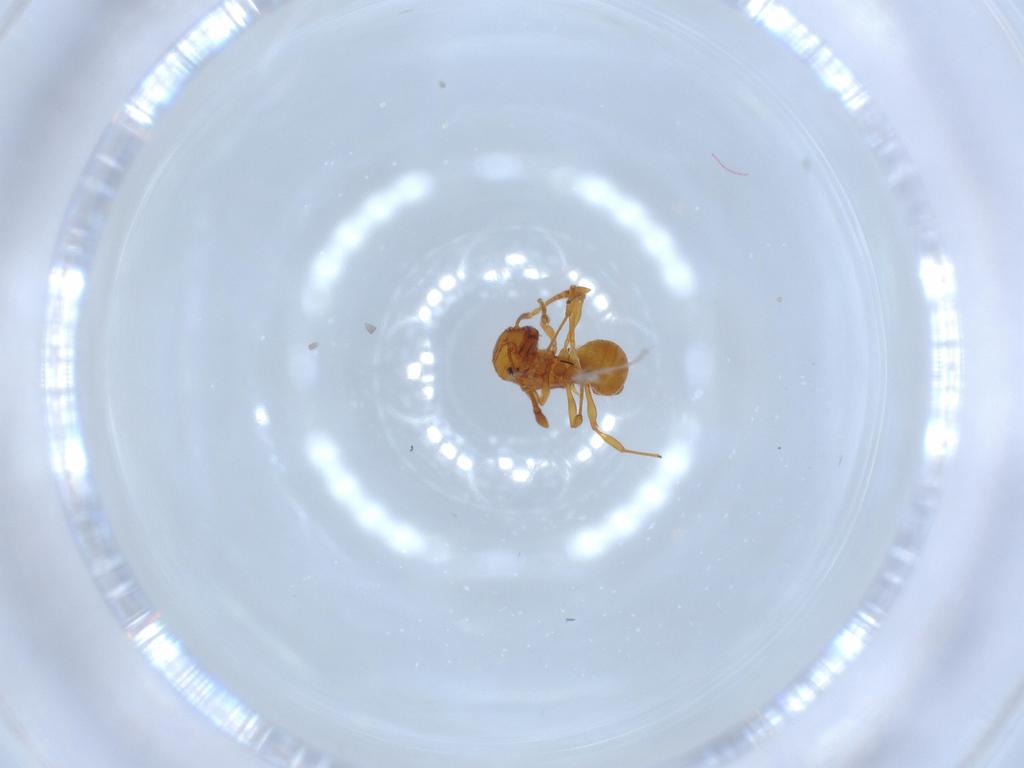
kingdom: Animalia
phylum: Arthropoda
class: Insecta
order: Hymenoptera
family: Formicidae
